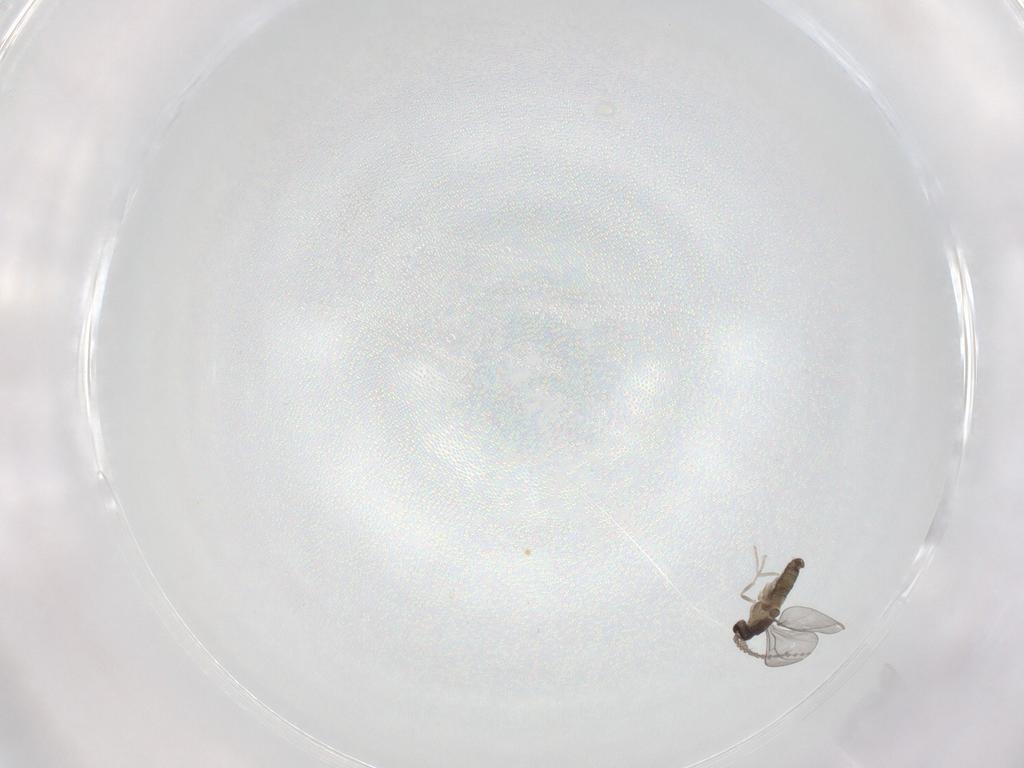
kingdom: Animalia
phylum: Arthropoda
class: Insecta
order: Diptera
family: Cecidomyiidae
